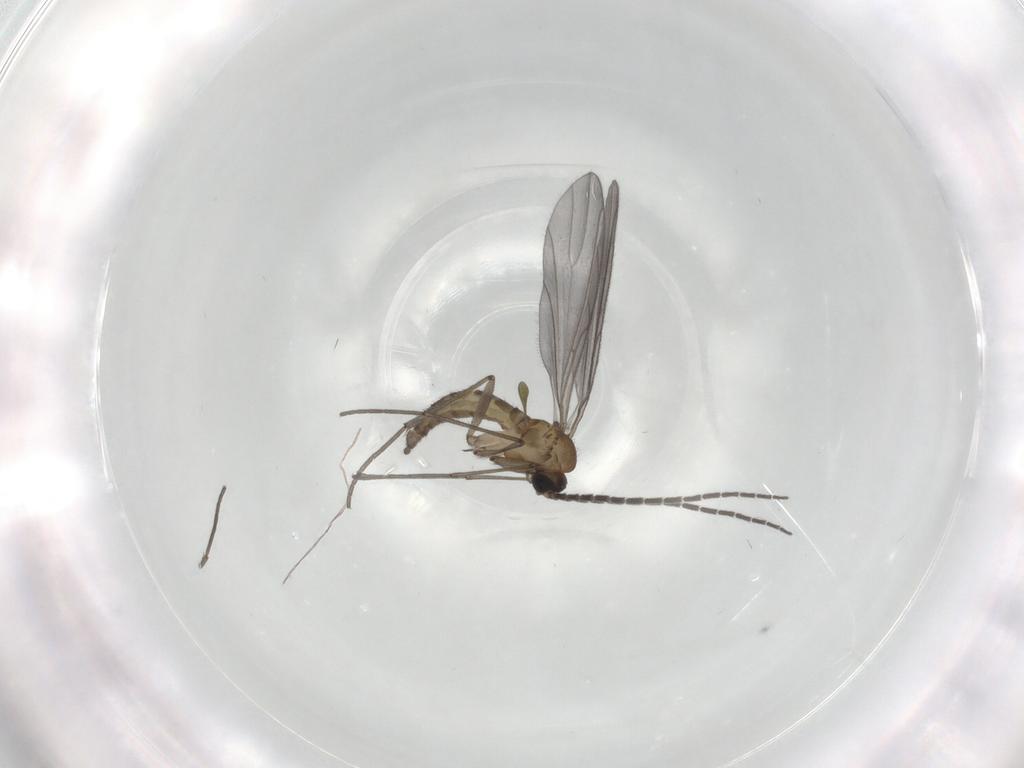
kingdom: Animalia
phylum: Arthropoda
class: Insecta
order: Diptera
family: Sciaridae
